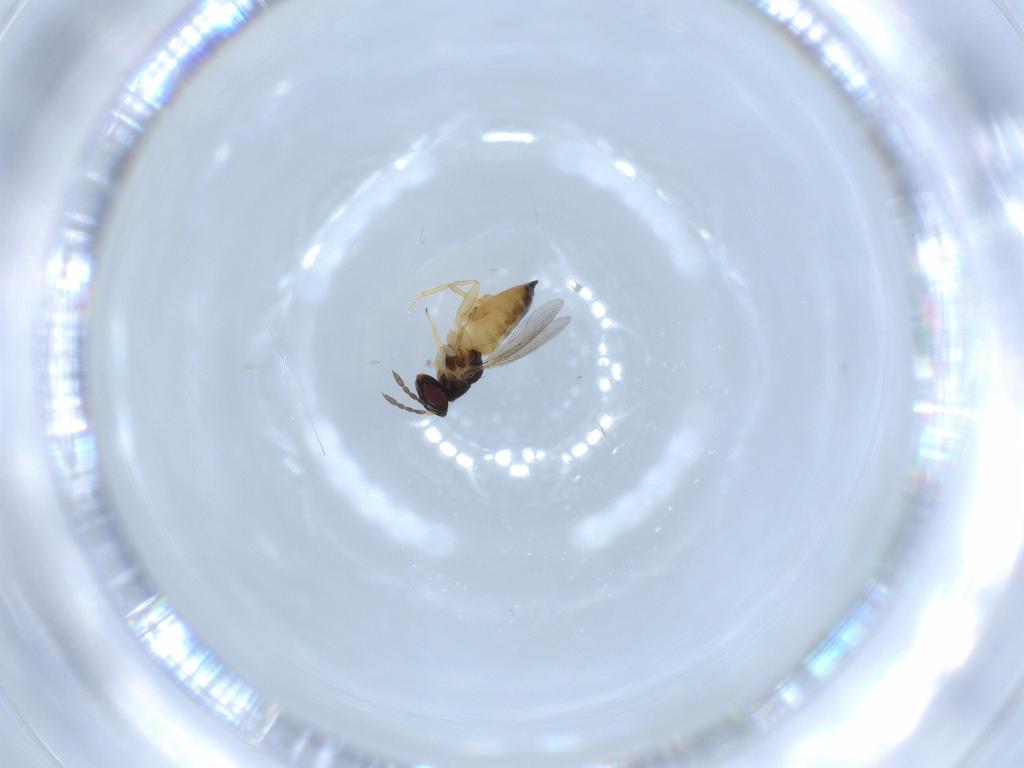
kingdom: Animalia
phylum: Arthropoda
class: Insecta
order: Hymenoptera
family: Eulophidae
